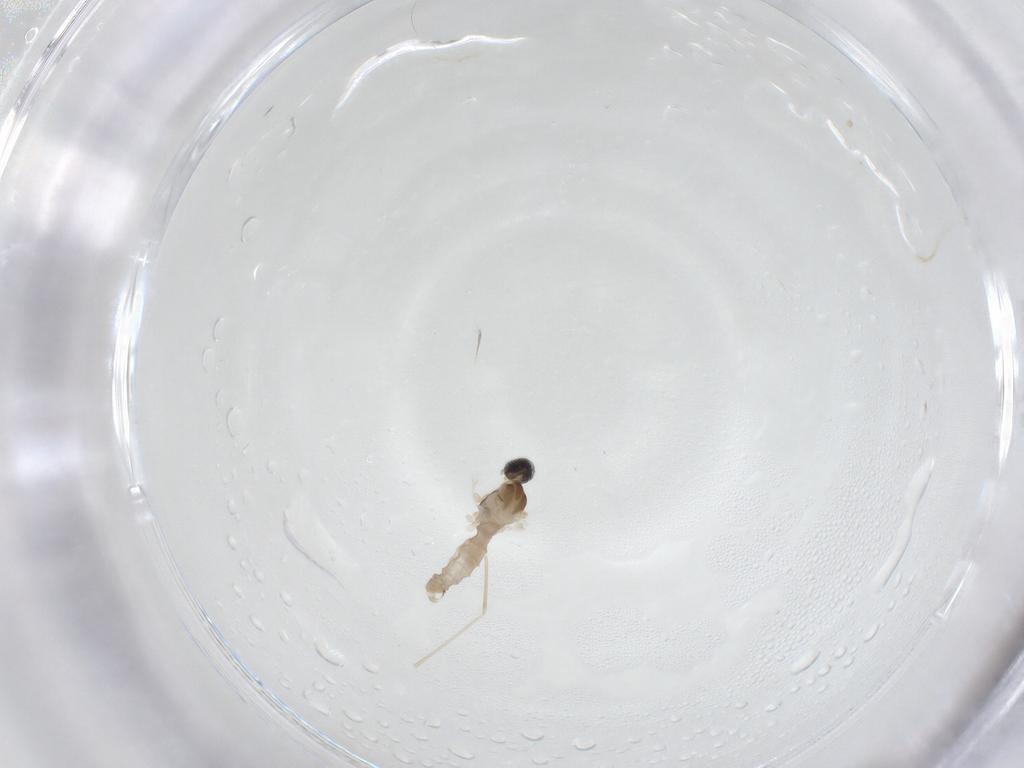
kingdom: Animalia
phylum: Arthropoda
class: Insecta
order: Diptera
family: Cecidomyiidae
